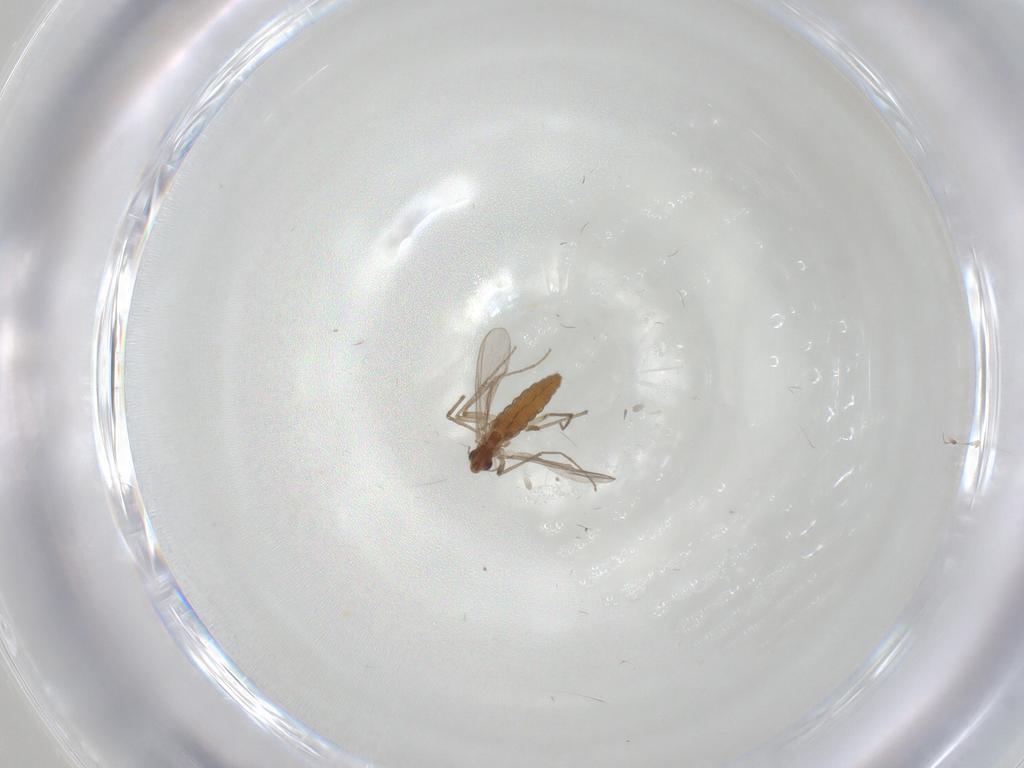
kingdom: Animalia
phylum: Arthropoda
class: Insecta
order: Diptera
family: Chironomidae
